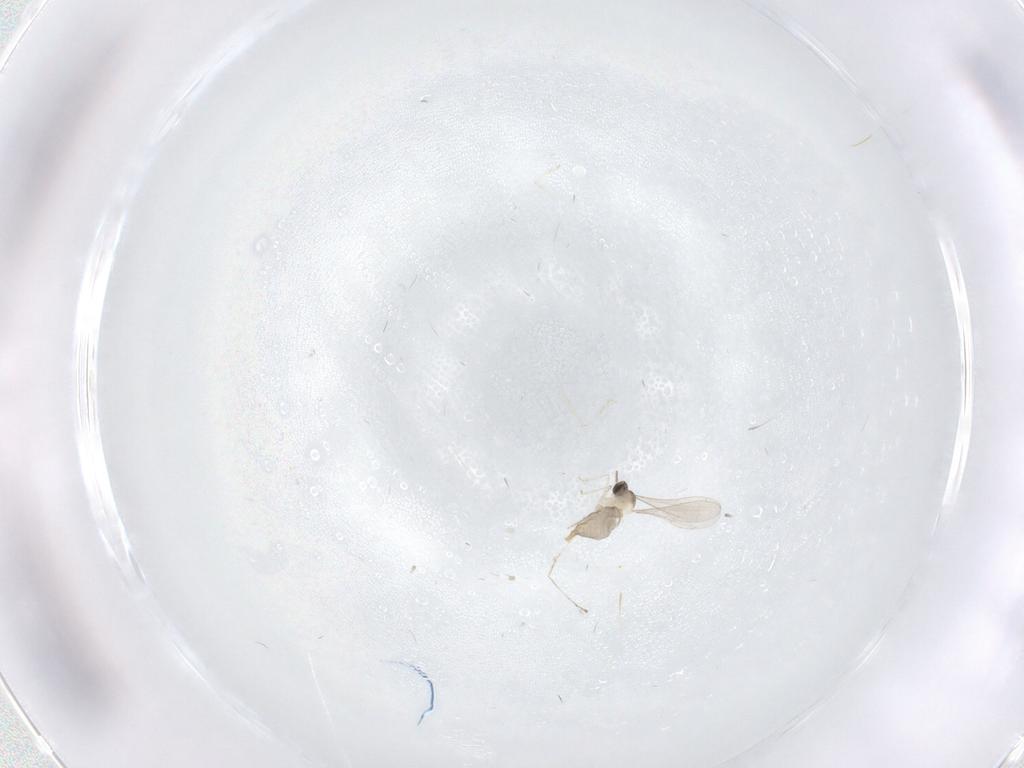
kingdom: Animalia
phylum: Arthropoda
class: Insecta
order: Diptera
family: Cecidomyiidae
